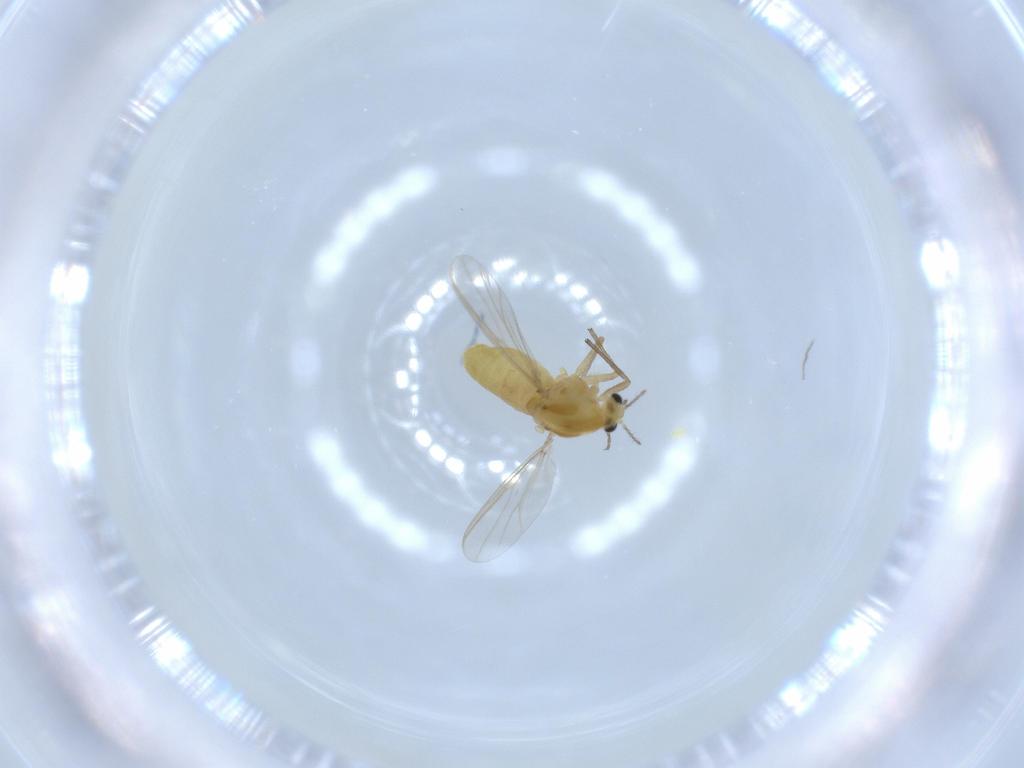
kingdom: Animalia
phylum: Arthropoda
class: Insecta
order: Diptera
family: Chironomidae
